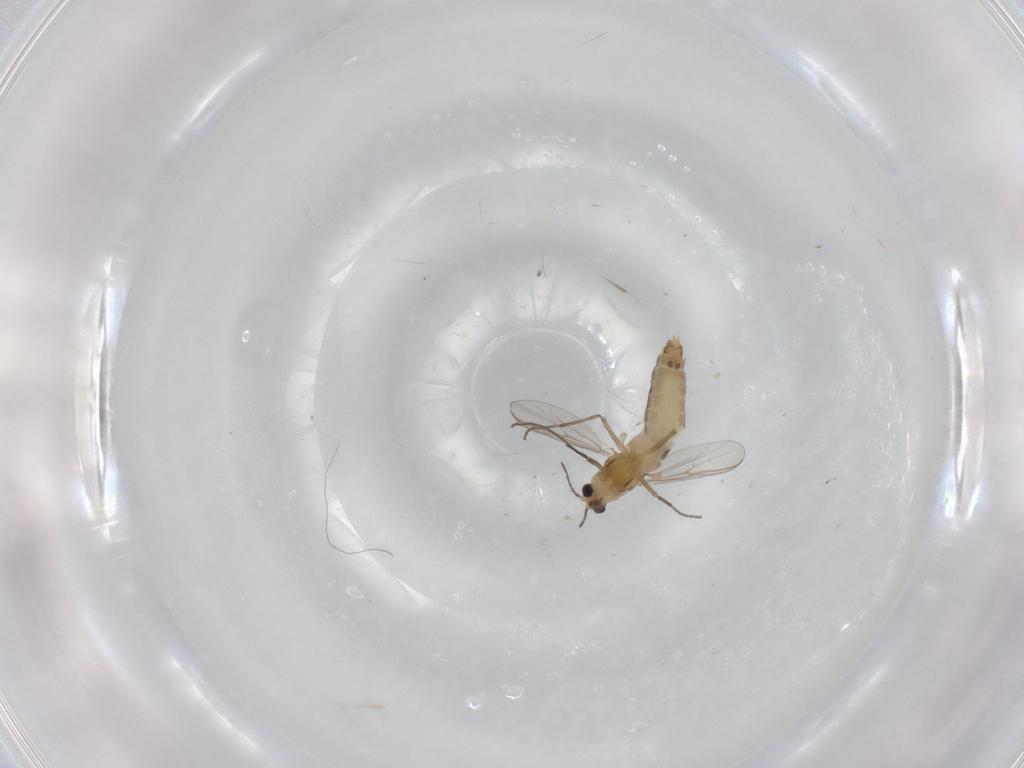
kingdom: Animalia
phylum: Arthropoda
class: Insecta
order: Diptera
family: Chironomidae
